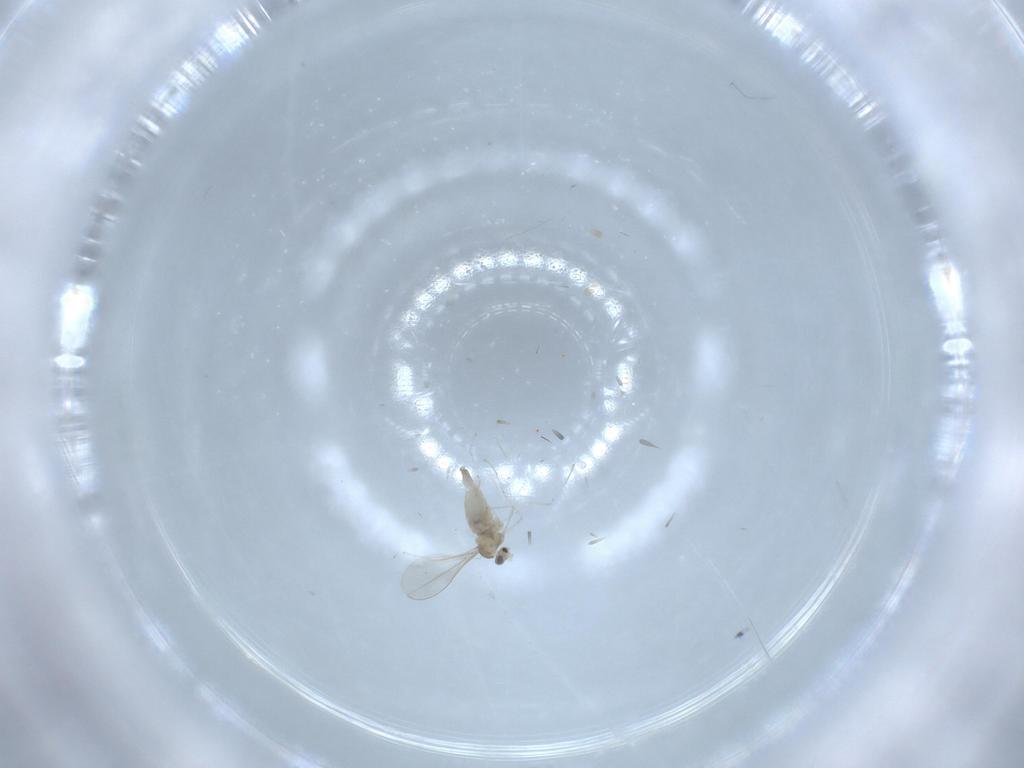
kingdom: Animalia
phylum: Arthropoda
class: Insecta
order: Diptera
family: Cecidomyiidae
